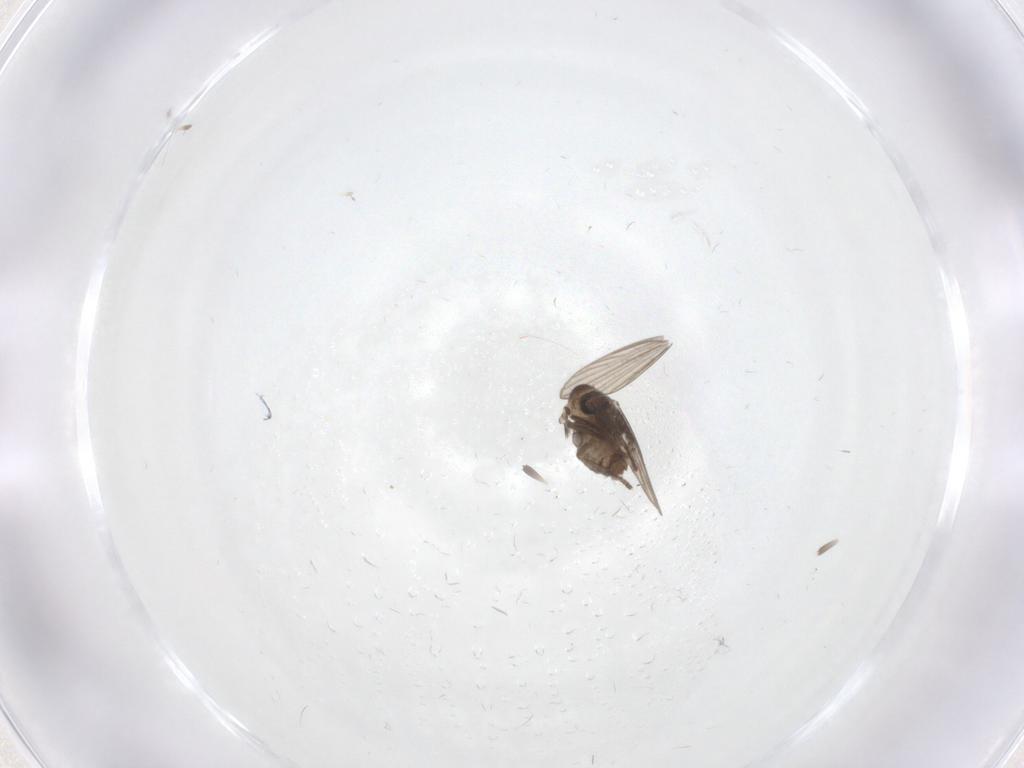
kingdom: Animalia
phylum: Arthropoda
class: Insecta
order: Diptera
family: Psychodidae
